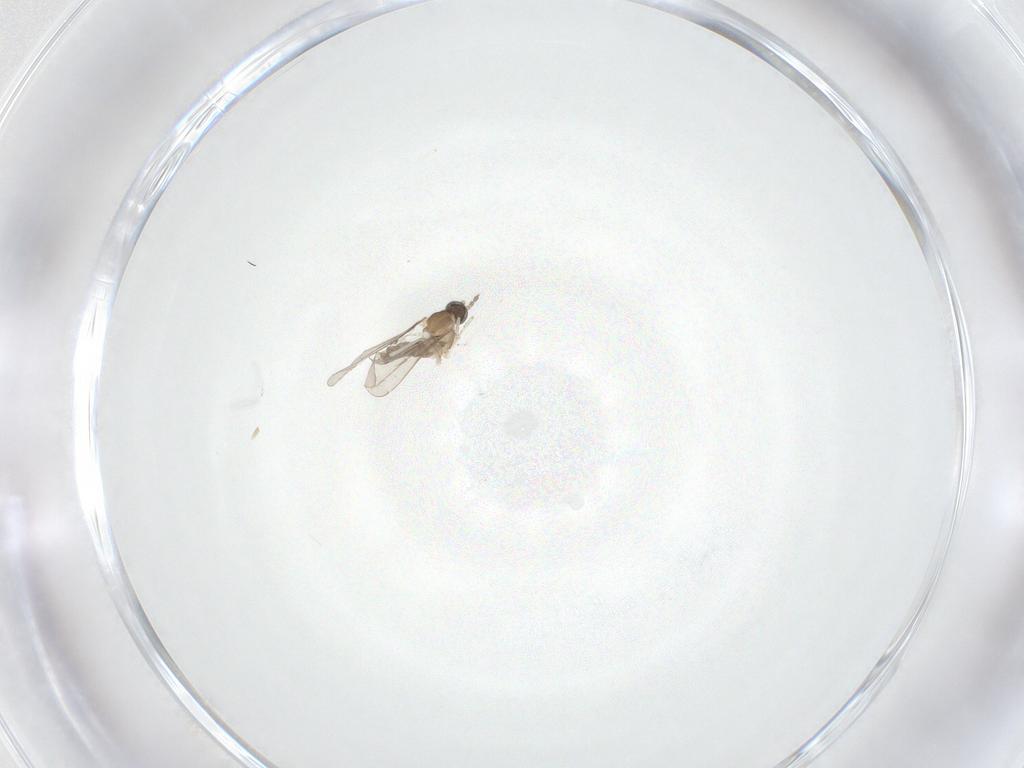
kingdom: Animalia
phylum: Arthropoda
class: Insecta
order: Diptera
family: Cecidomyiidae
